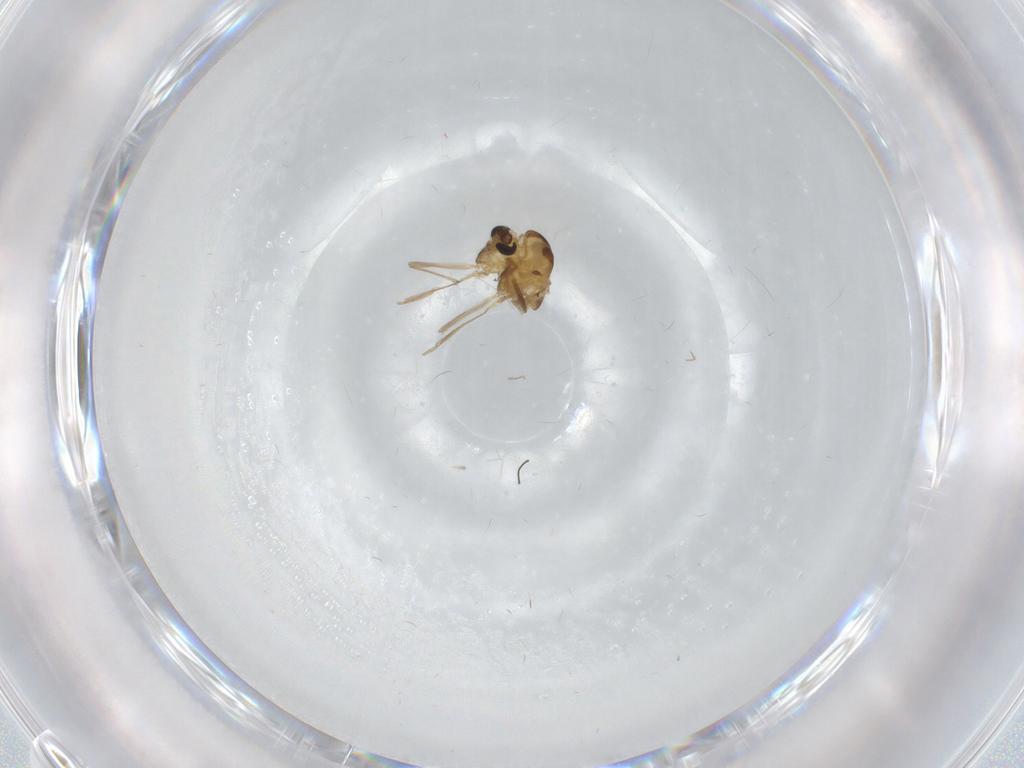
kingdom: Animalia
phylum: Arthropoda
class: Insecta
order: Diptera
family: Chironomidae
